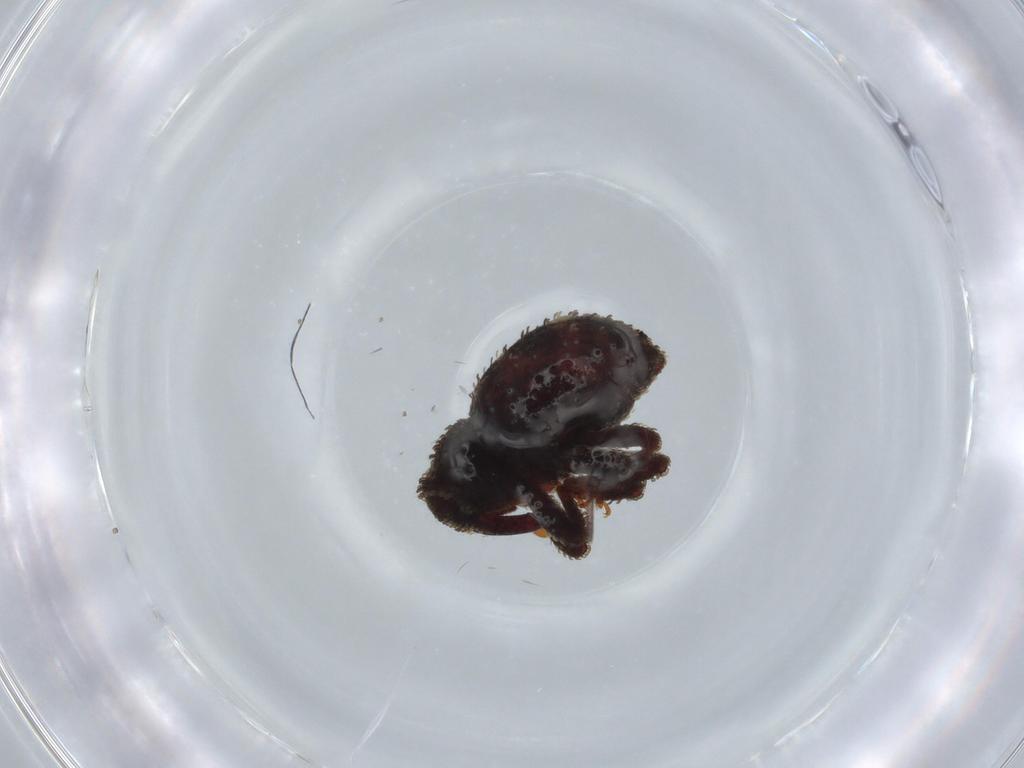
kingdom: Animalia
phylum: Arthropoda
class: Insecta
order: Coleoptera
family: Curculionidae
